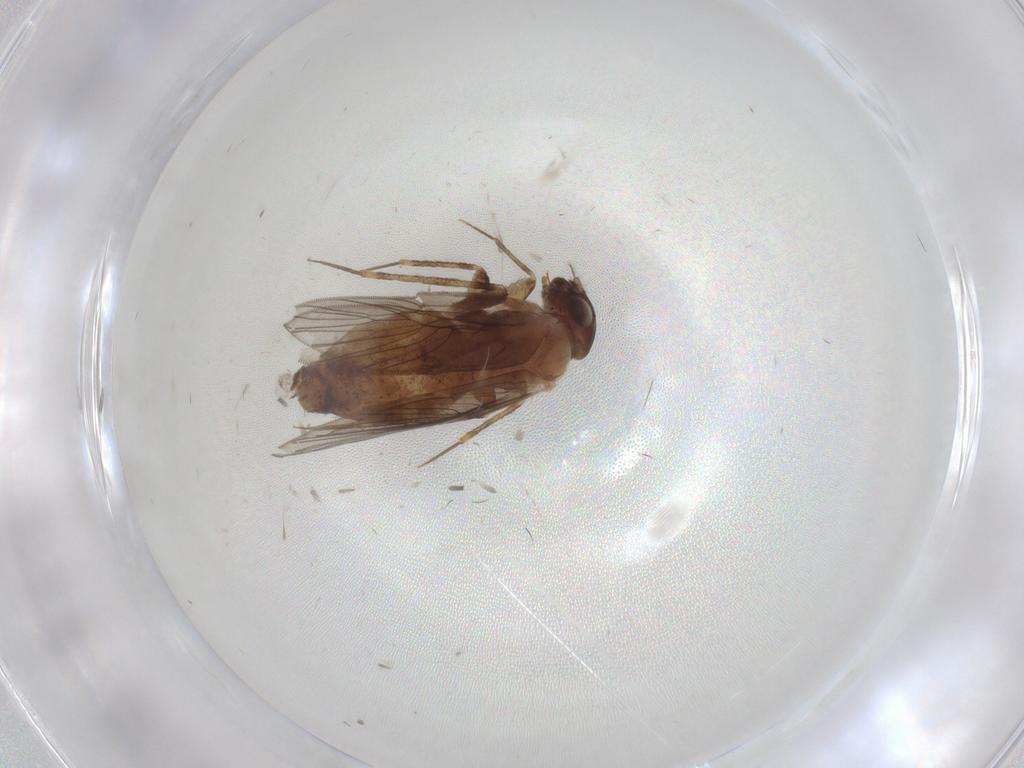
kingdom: Animalia
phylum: Arthropoda
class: Insecta
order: Psocodea
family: Lepidopsocidae
